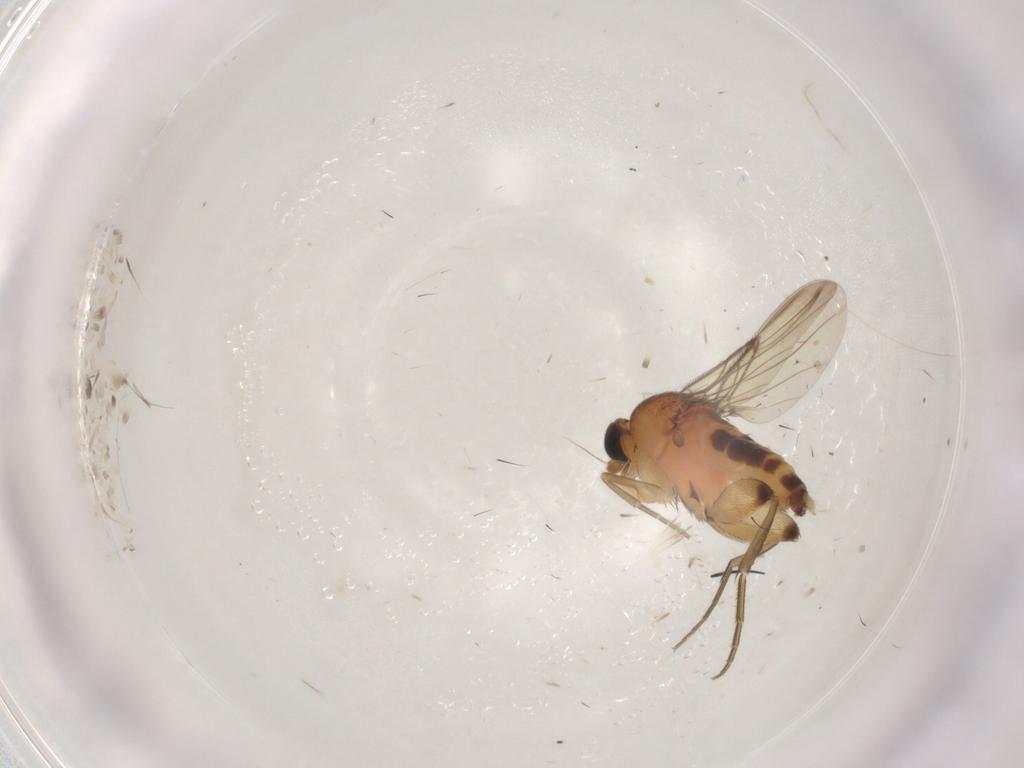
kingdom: Animalia
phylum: Arthropoda
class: Insecta
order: Diptera
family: Phoridae
